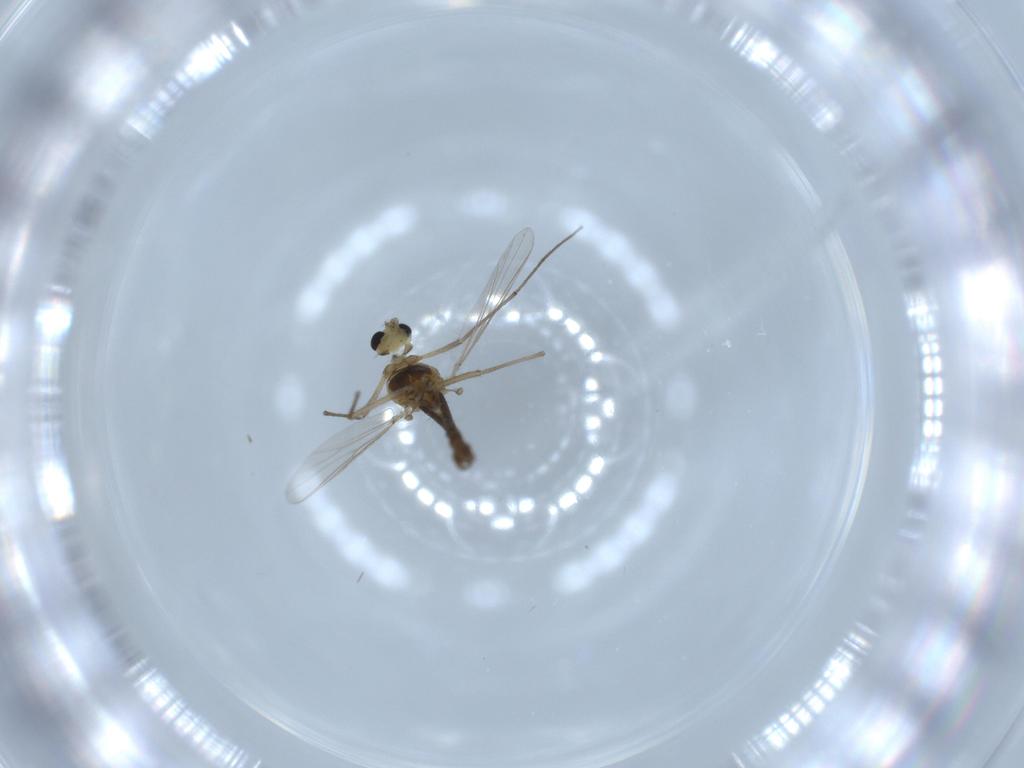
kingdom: Animalia
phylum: Arthropoda
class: Insecta
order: Diptera
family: Chironomidae
